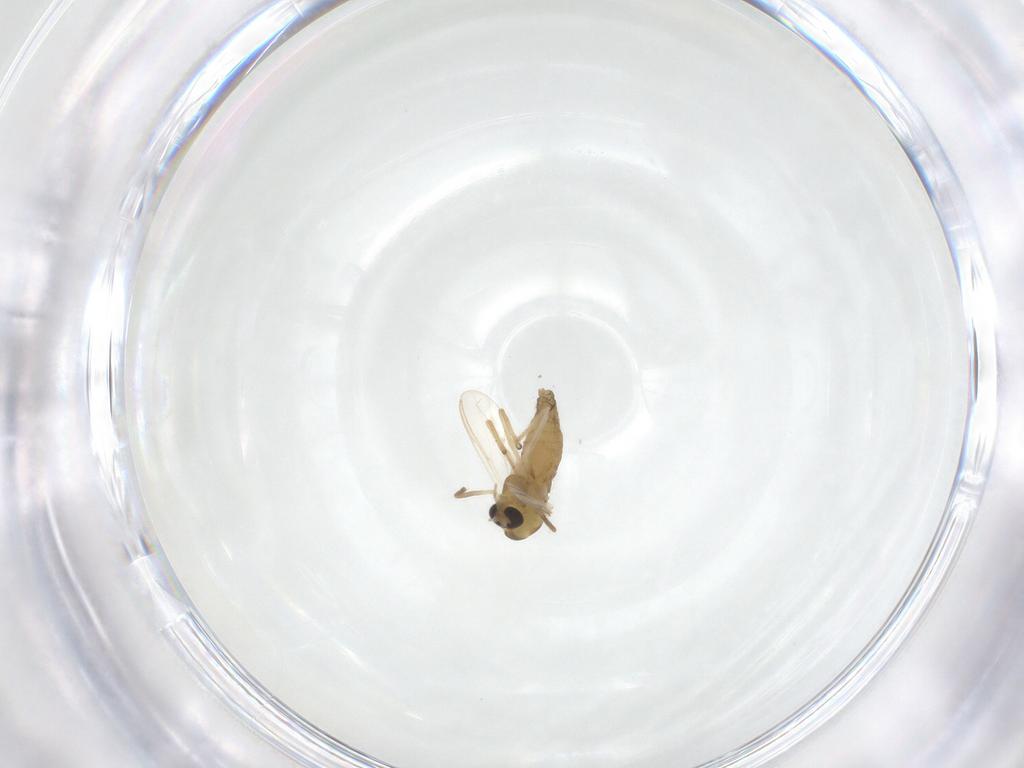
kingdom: Animalia
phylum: Arthropoda
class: Insecta
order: Diptera
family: Chironomidae
